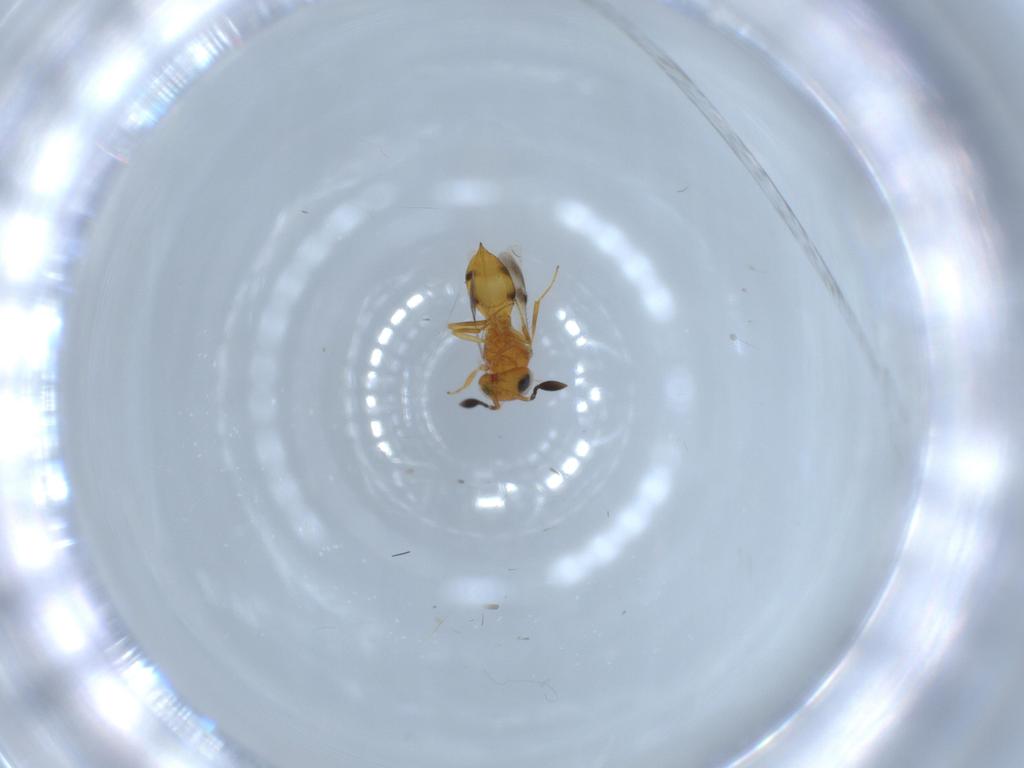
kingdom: Animalia
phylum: Arthropoda
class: Insecta
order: Hymenoptera
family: Scelionidae
